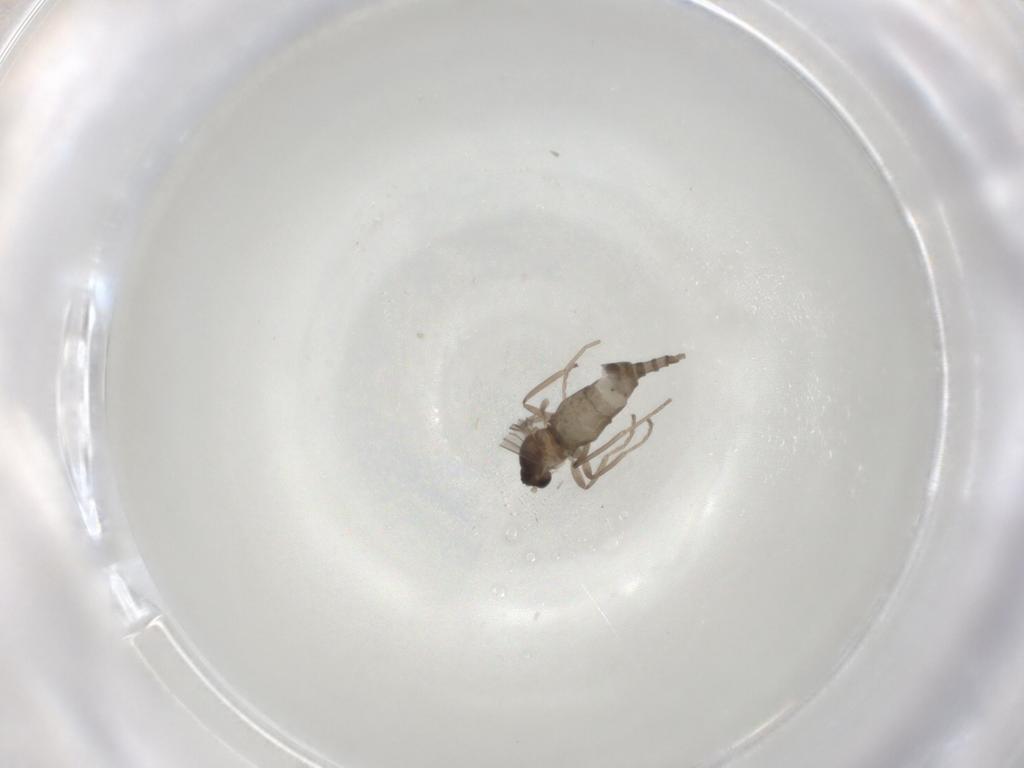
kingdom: Animalia
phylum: Arthropoda
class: Insecta
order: Diptera
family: Cecidomyiidae
